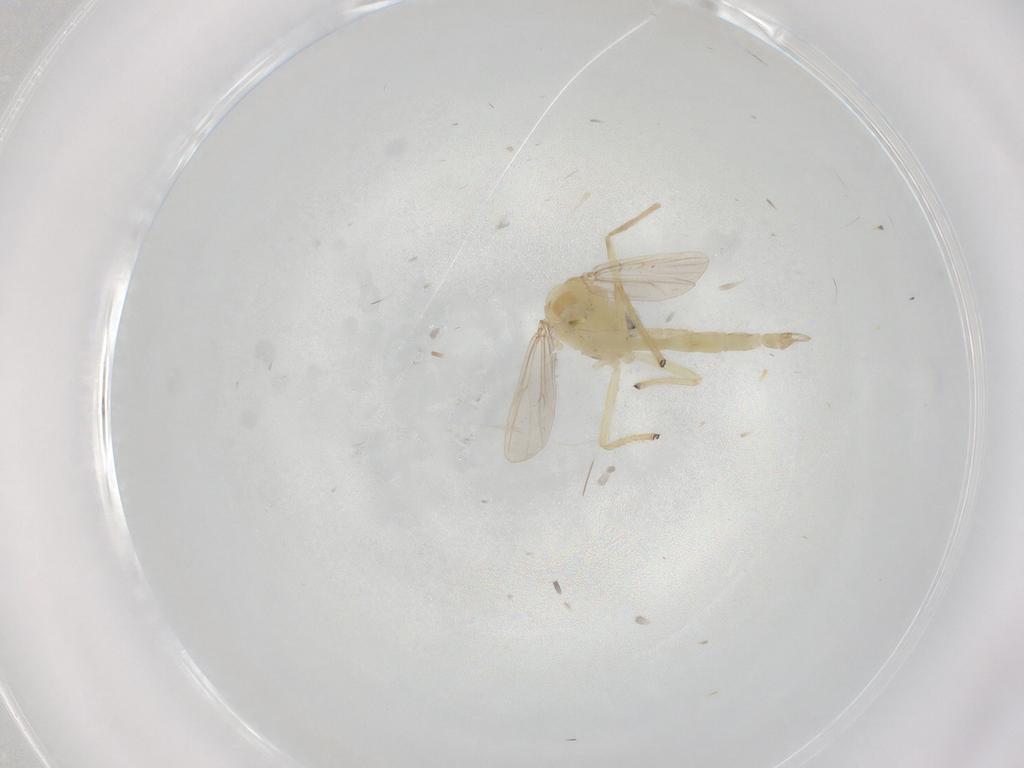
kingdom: Animalia
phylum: Arthropoda
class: Insecta
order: Diptera
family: Chironomidae
